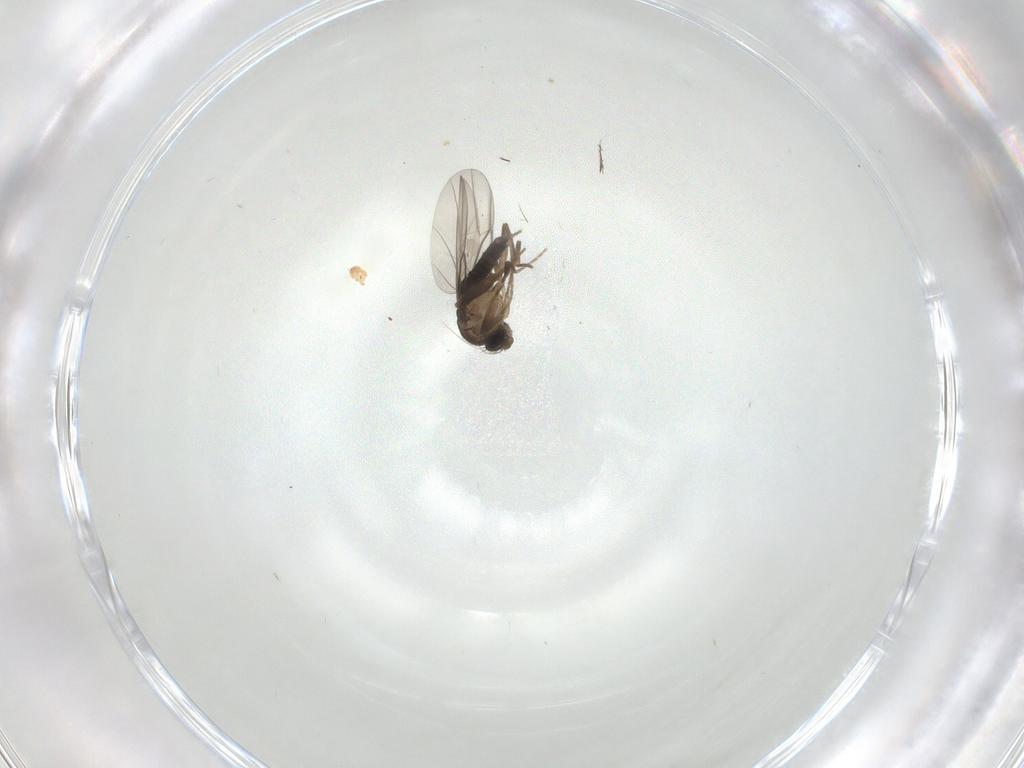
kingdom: Animalia
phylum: Arthropoda
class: Insecta
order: Diptera
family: Phoridae
